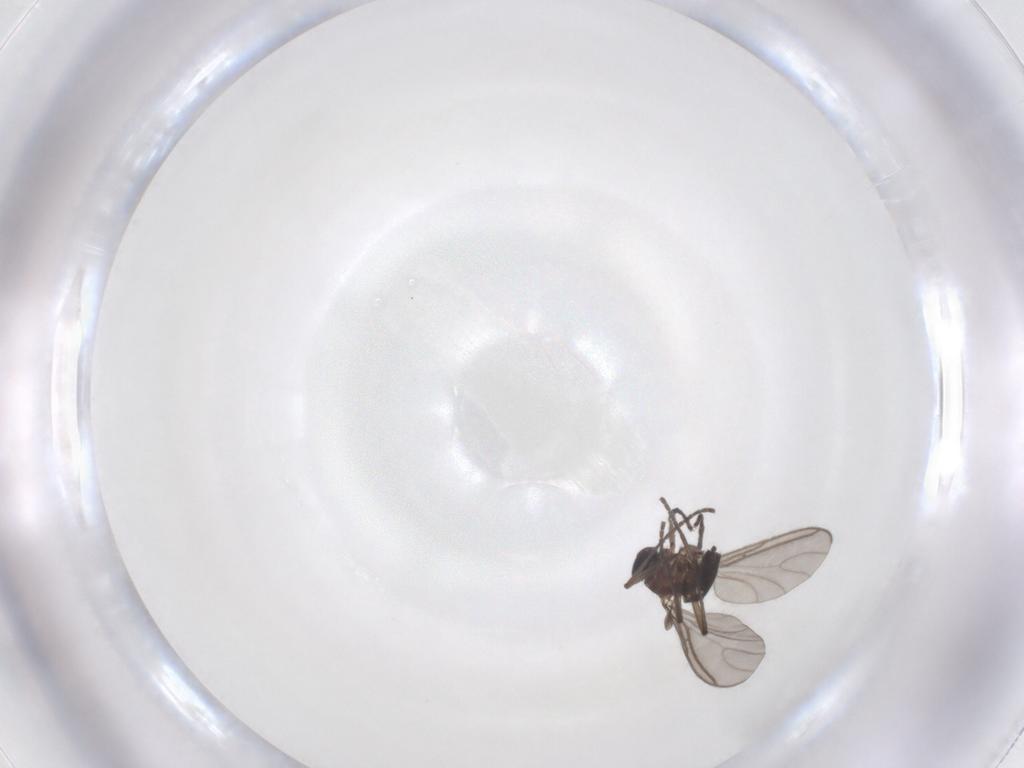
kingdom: Animalia
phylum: Arthropoda
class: Insecta
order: Diptera
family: Sciaridae
